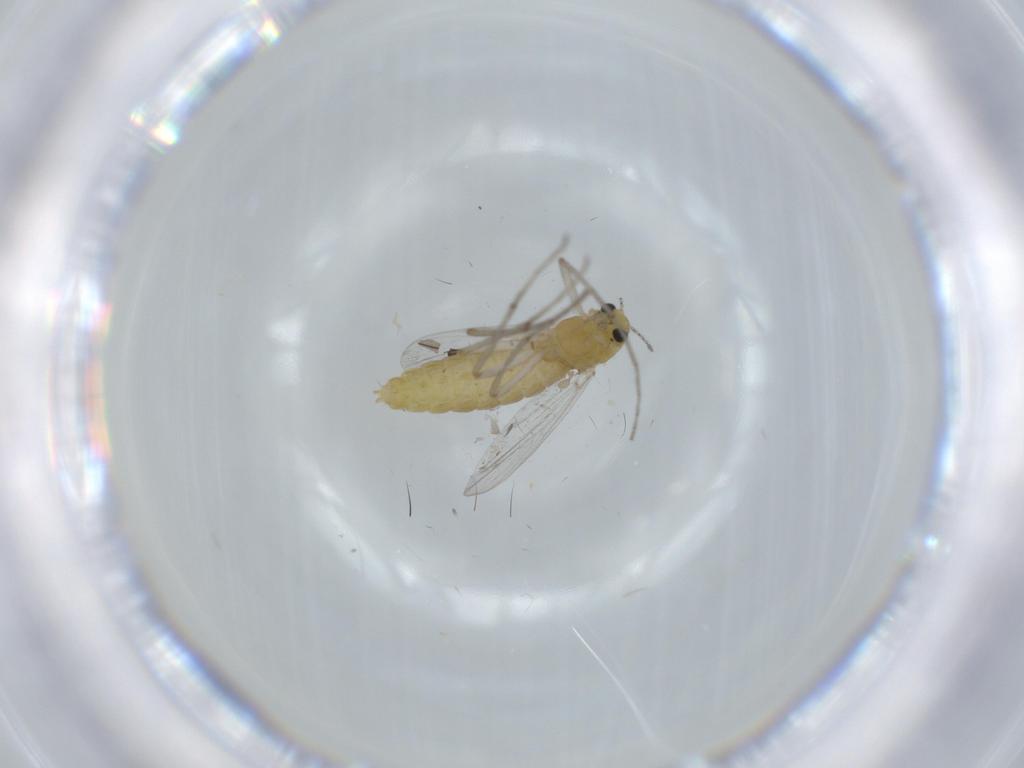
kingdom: Animalia
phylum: Arthropoda
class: Insecta
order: Diptera
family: Chironomidae
